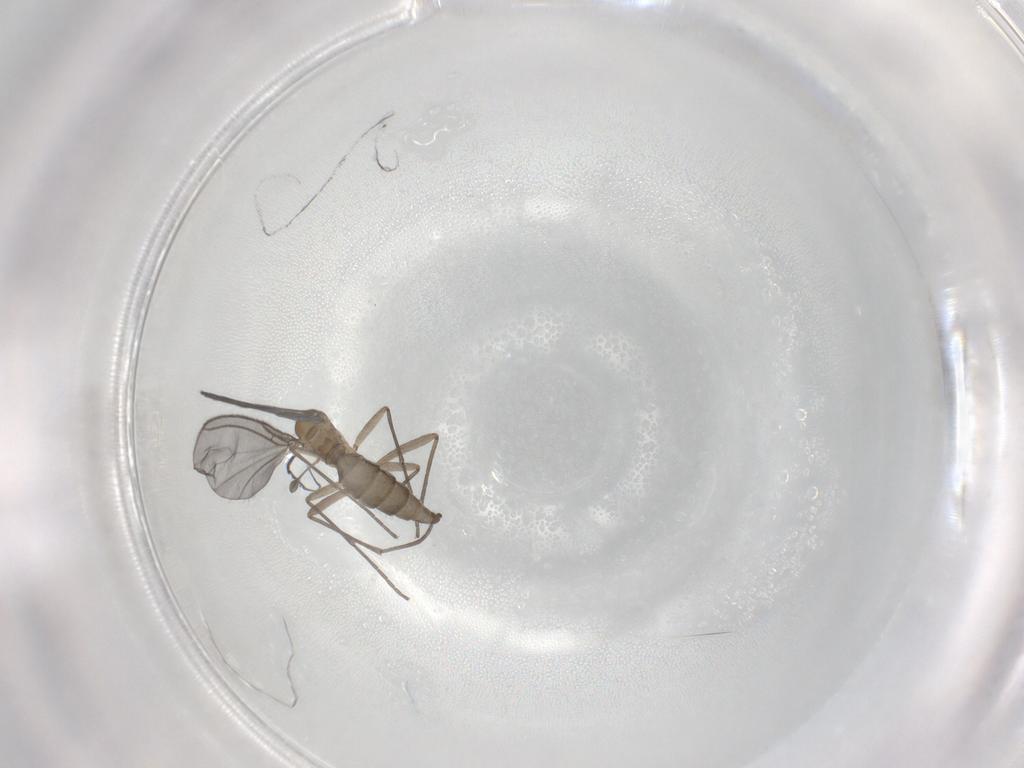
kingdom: Animalia
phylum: Arthropoda
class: Insecta
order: Diptera
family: Sciaridae
